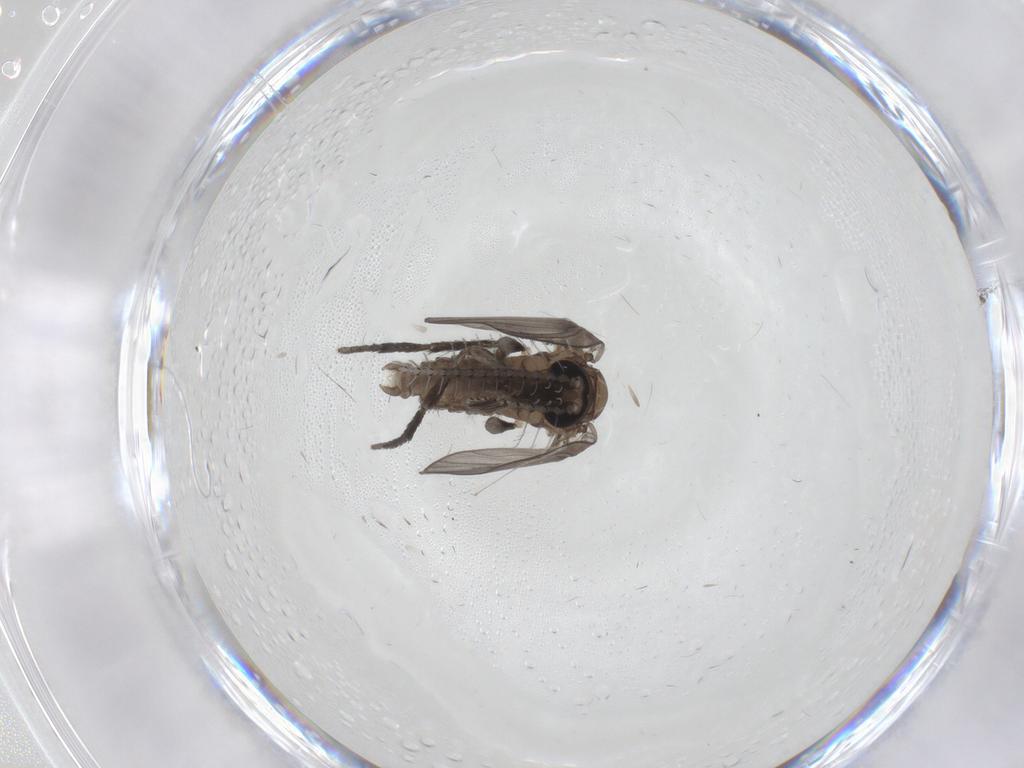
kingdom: Animalia
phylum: Arthropoda
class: Insecta
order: Diptera
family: Psychodidae
